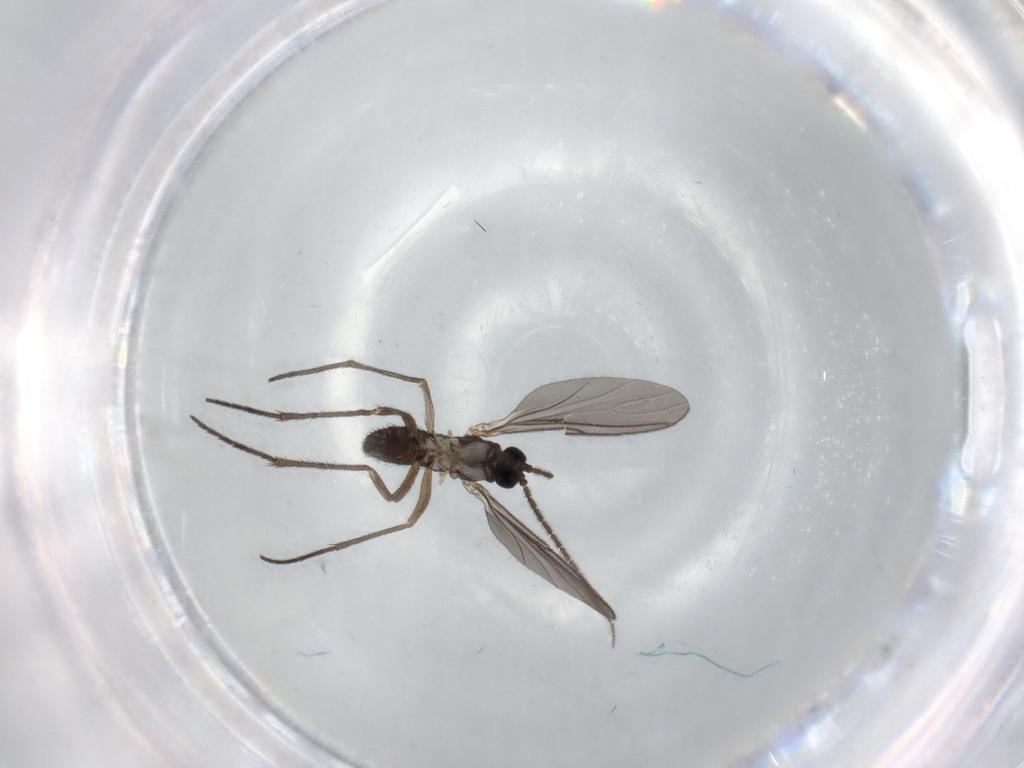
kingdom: Animalia
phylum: Arthropoda
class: Insecta
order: Diptera
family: Sciaridae
